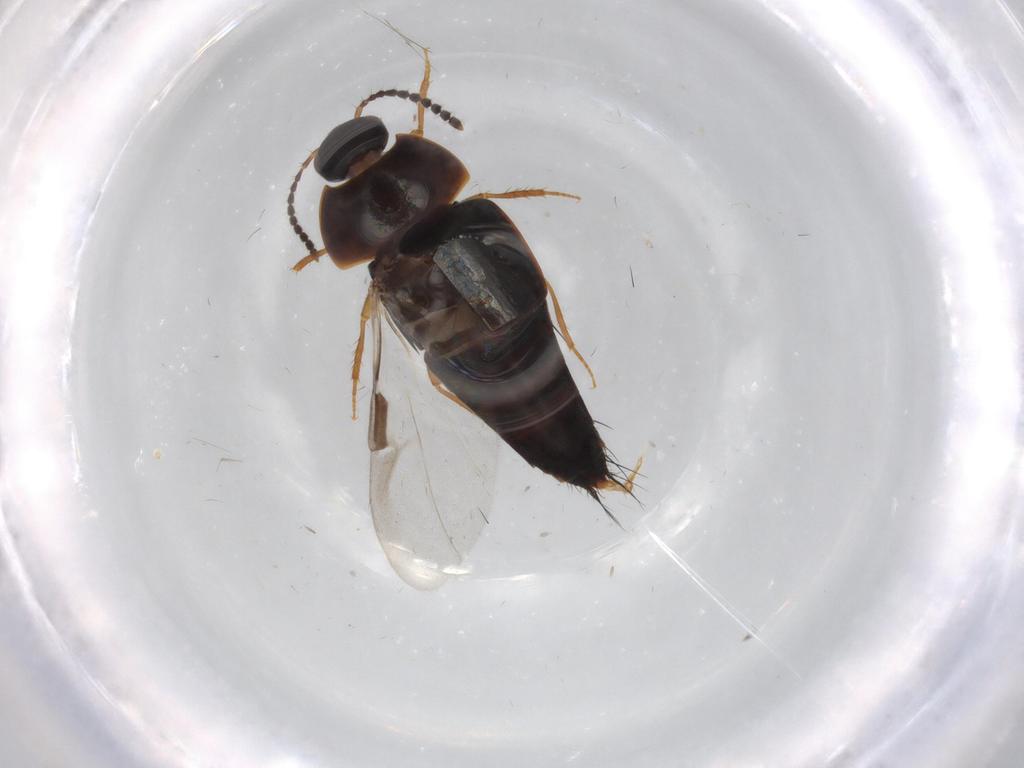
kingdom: Animalia
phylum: Arthropoda
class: Insecta
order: Coleoptera
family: Staphylinidae
